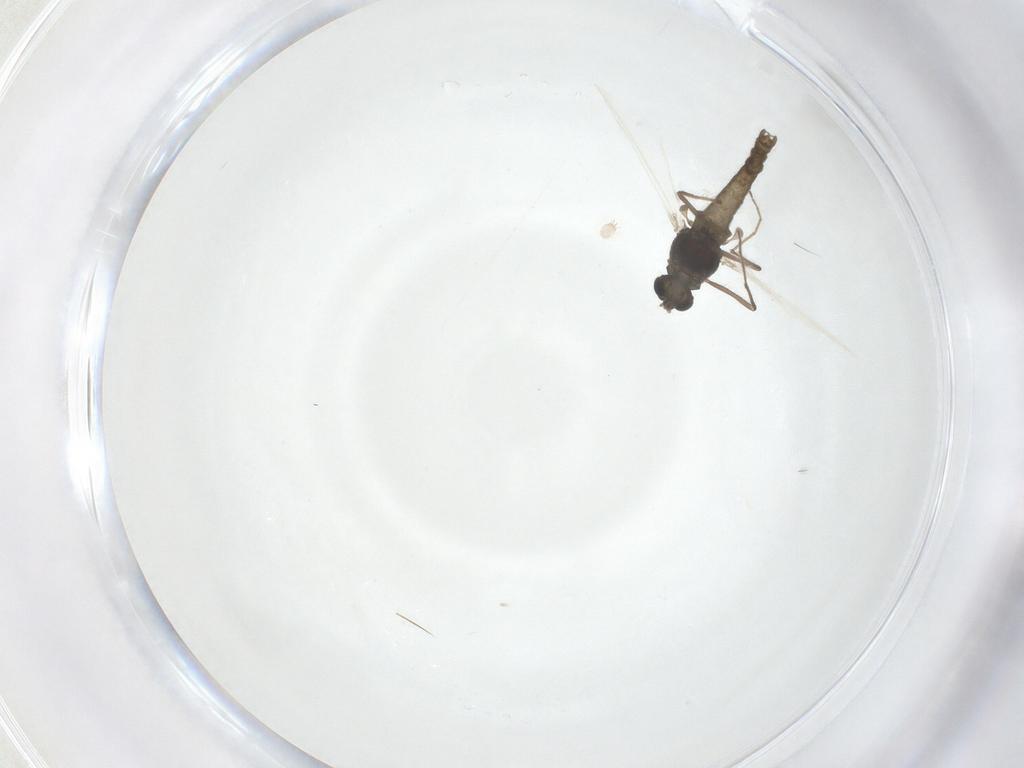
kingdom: Animalia
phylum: Arthropoda
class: Insecta
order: Diptera
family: Chironomidae
